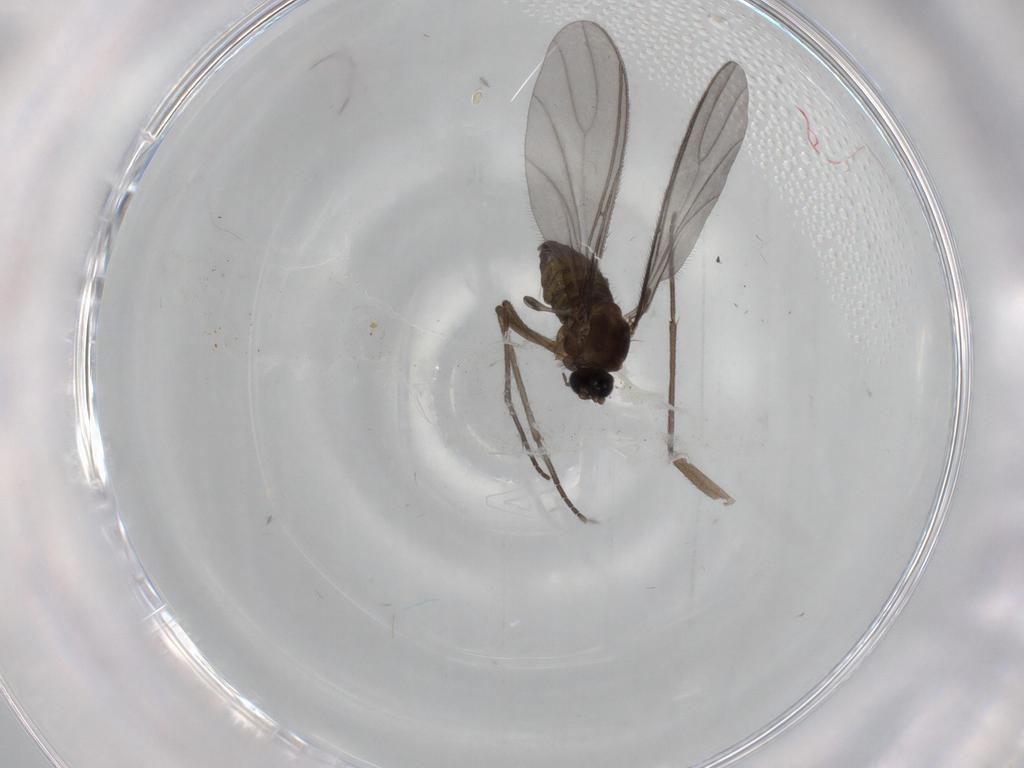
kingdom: Animalia
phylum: Arthropoda
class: Insecta
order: Diptera
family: Sciaridae
